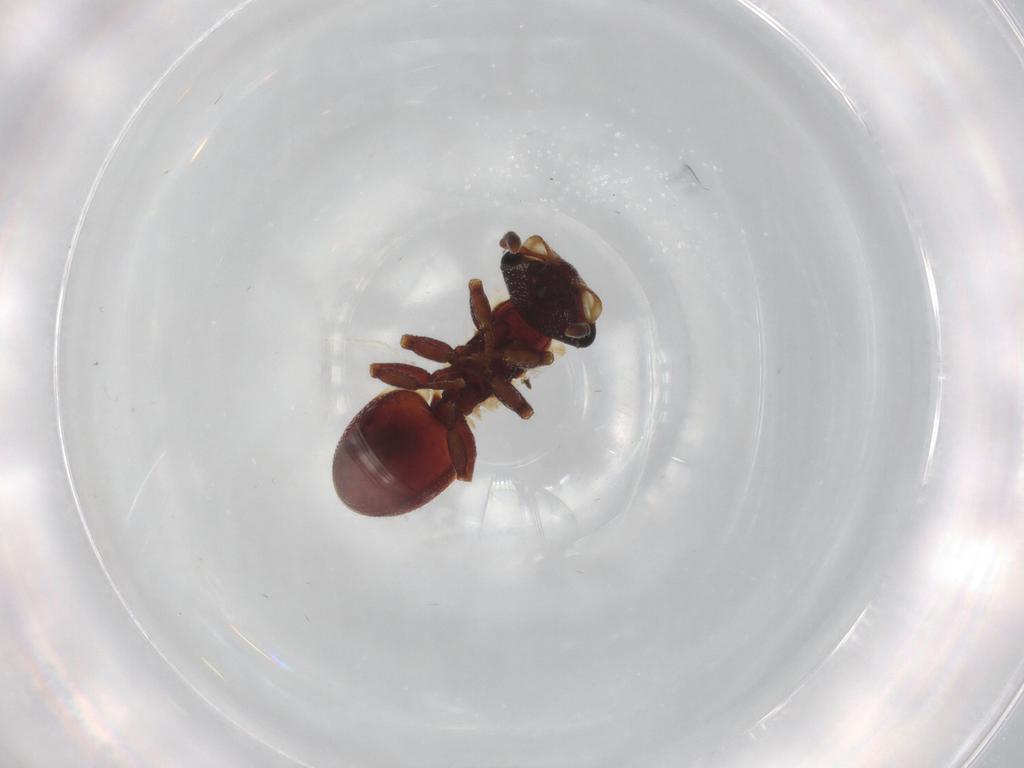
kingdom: Animalia
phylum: Arthropoda
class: Insecta
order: Hymenoptera
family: Formicidae
